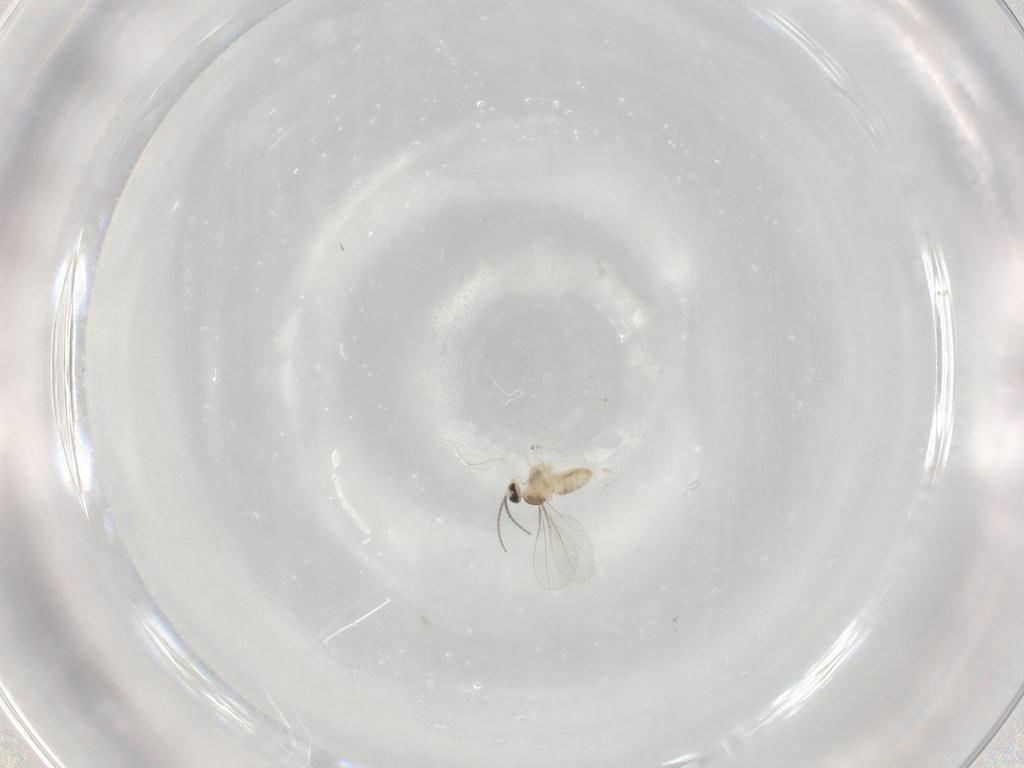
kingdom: Animalia
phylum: Arthropoda
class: Insecta
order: Diptera
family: Cecidomyiidae
